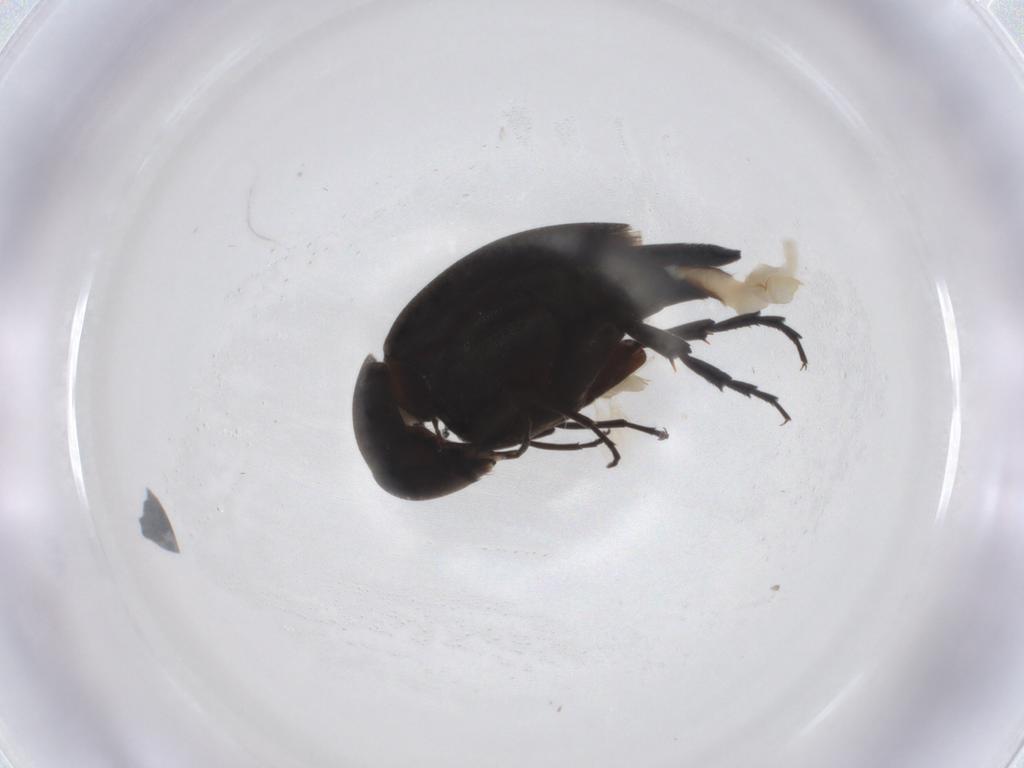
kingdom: Animalia
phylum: Arthropoda
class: Insecta
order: Coleoptera
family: Mordellidae
